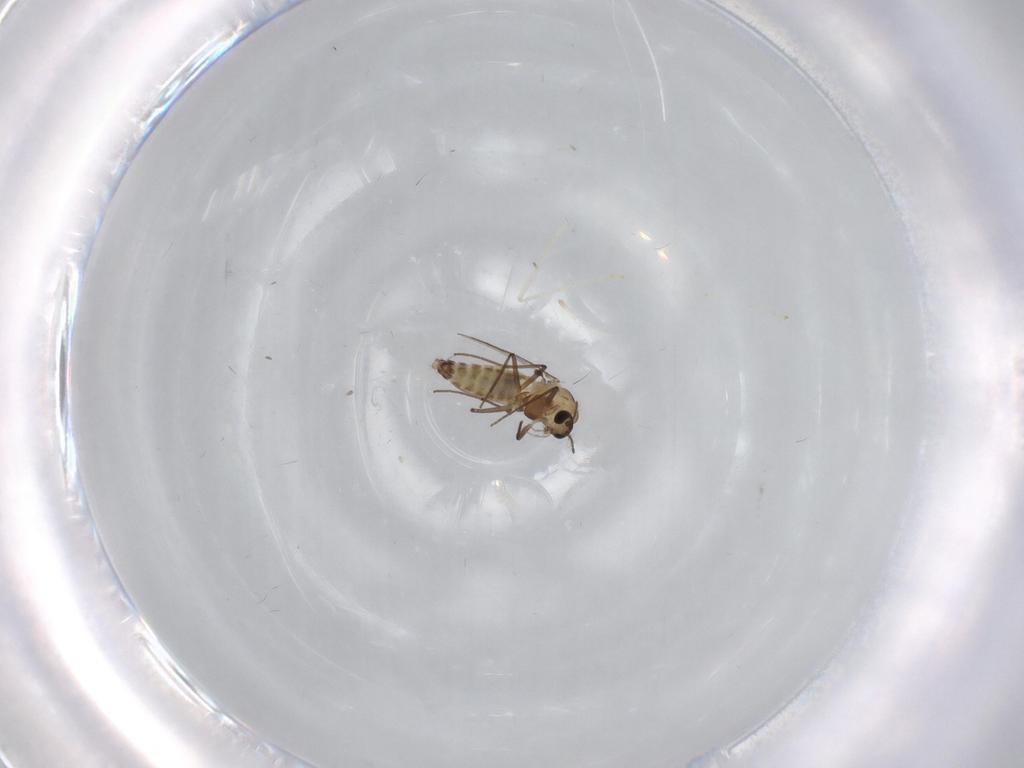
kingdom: Animalia
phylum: Arthropoda
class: Insecta
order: Diptera
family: Chironomidae
